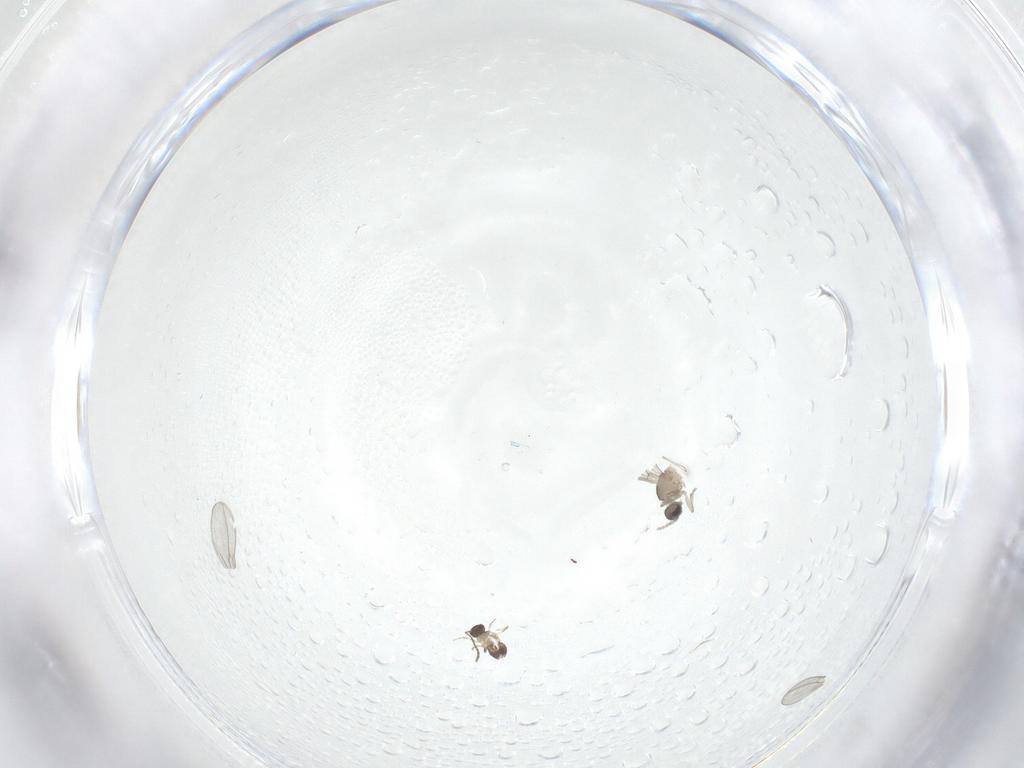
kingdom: Animalia
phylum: Arthropoda
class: Insecta
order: Diptera
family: Cecidomyiidae
